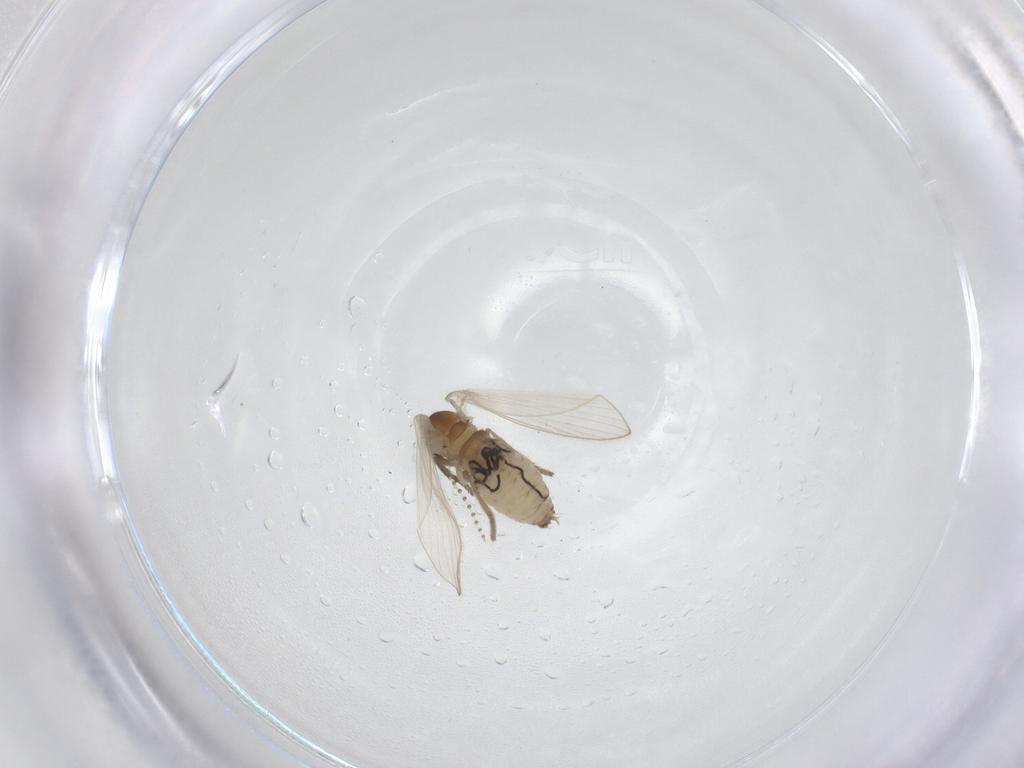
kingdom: Animalia
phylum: Arthropoda
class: Insecta
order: Diptera
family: Psychodidae
